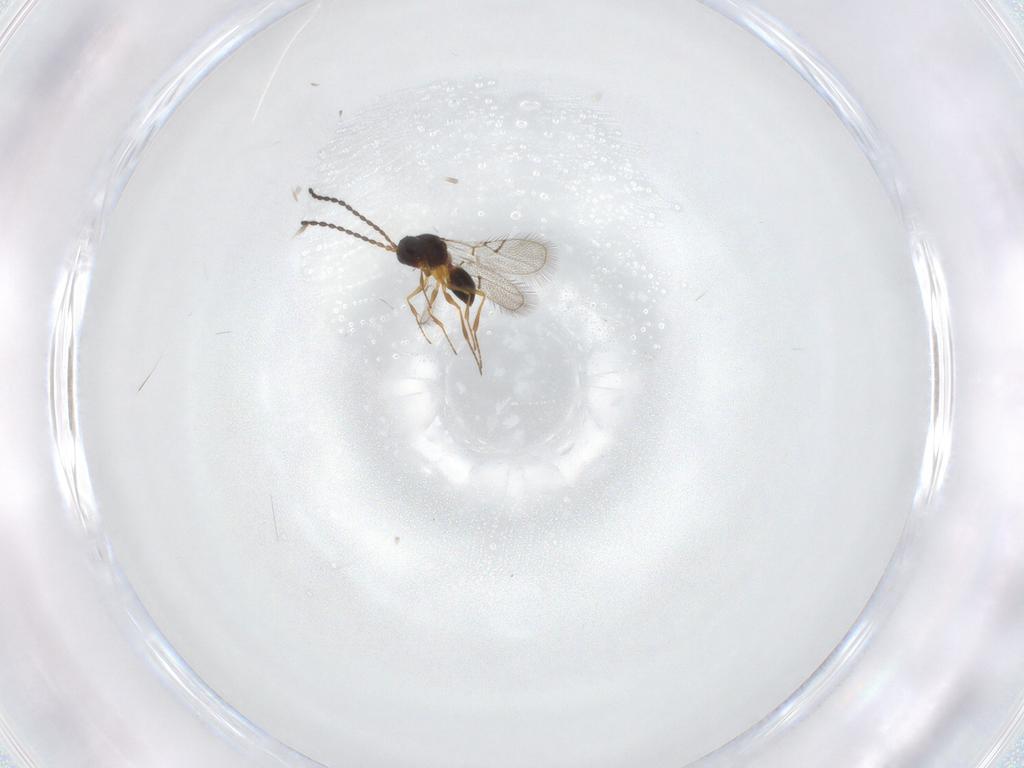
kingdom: Animalia
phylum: Arthropoda
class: Insecta
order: Hymenoptera
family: Figitidae
